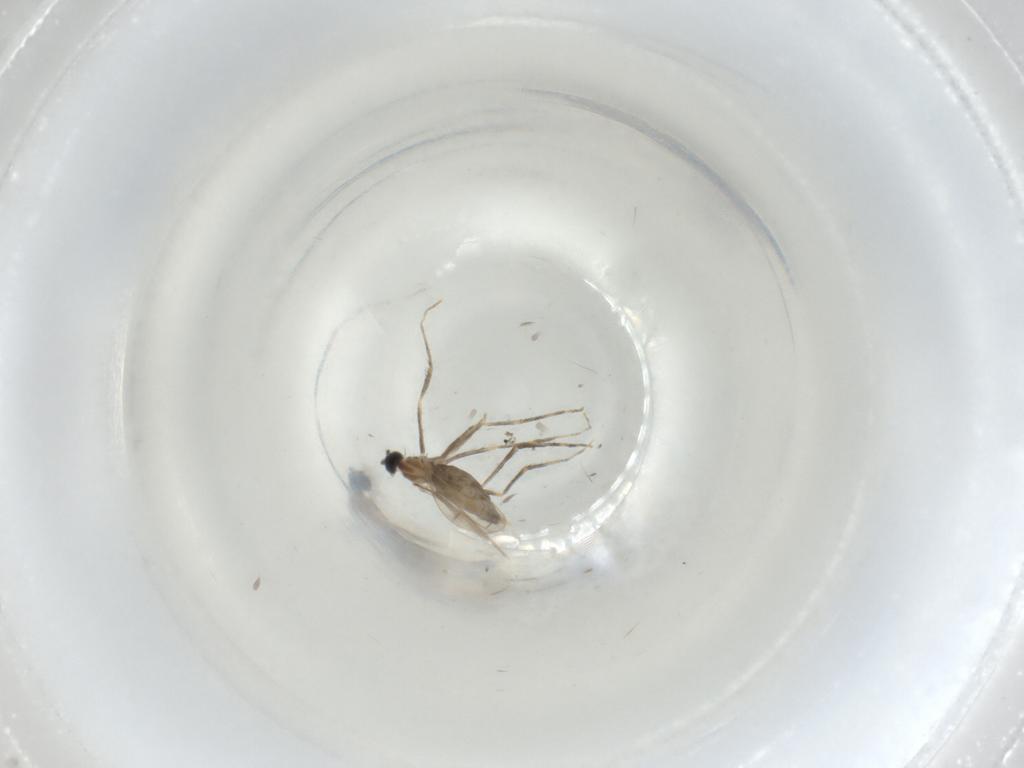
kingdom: Animalia
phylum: Arthropoda
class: Insecta
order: Diptera
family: Cecidomyiidae
